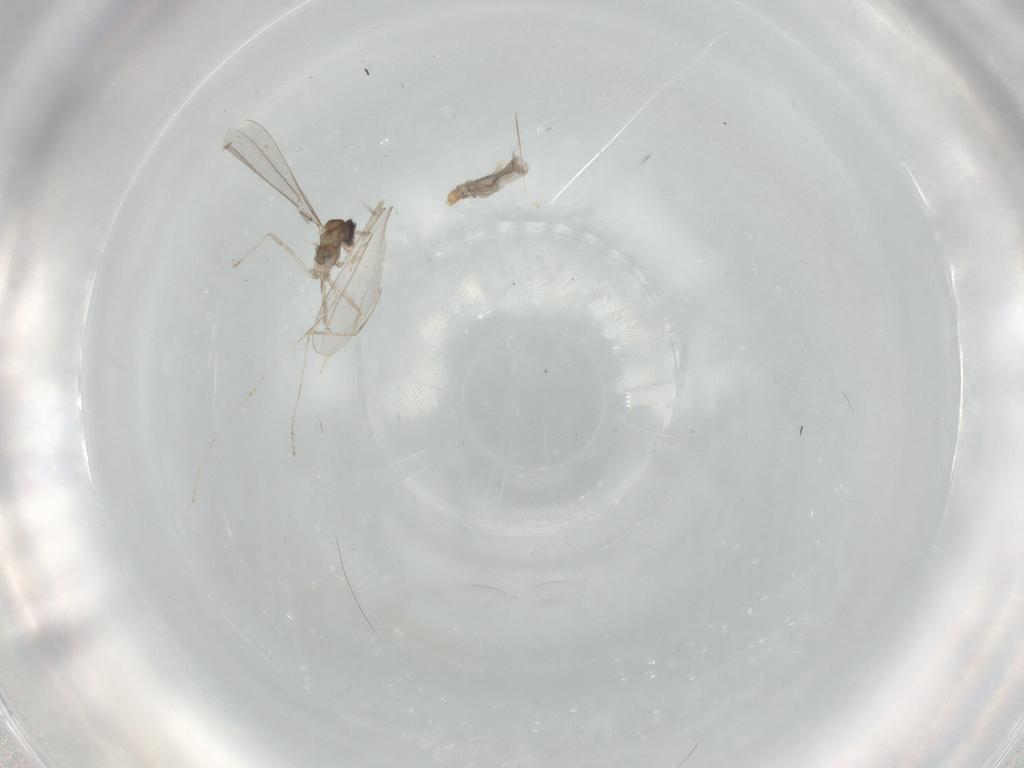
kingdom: Animalia
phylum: Arthropoda
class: Insecta
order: Diptera
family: Cecidomyiidae
